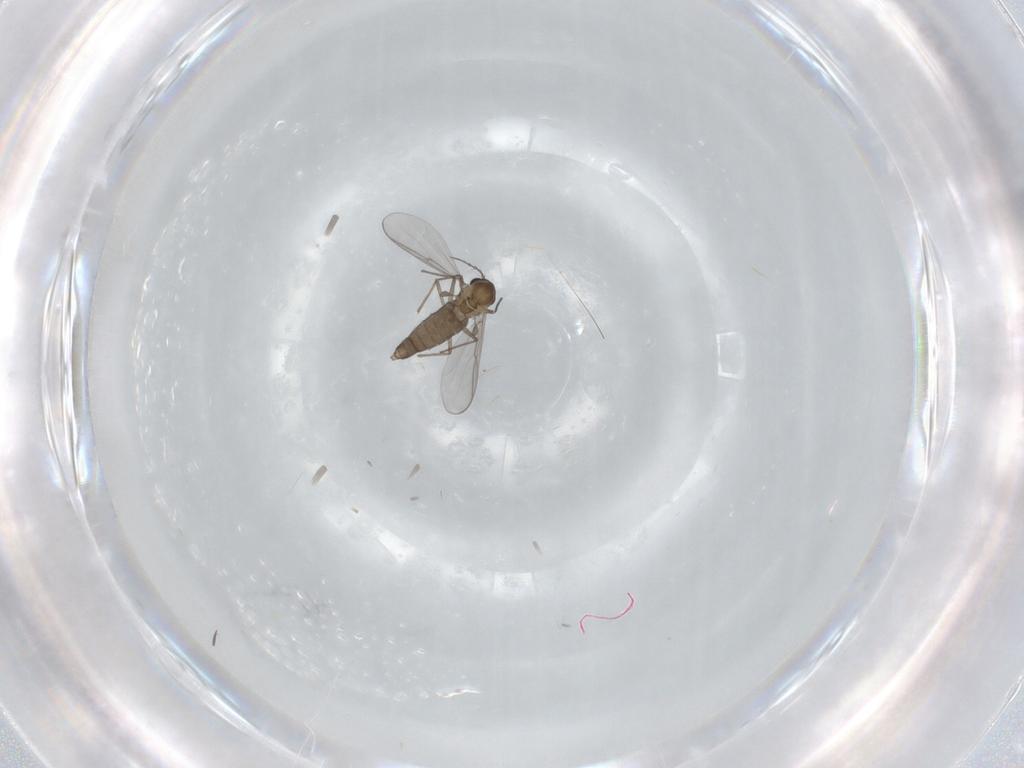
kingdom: Animalia
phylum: Arthropoda
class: Insecta
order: Diptera
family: Chironomidae
